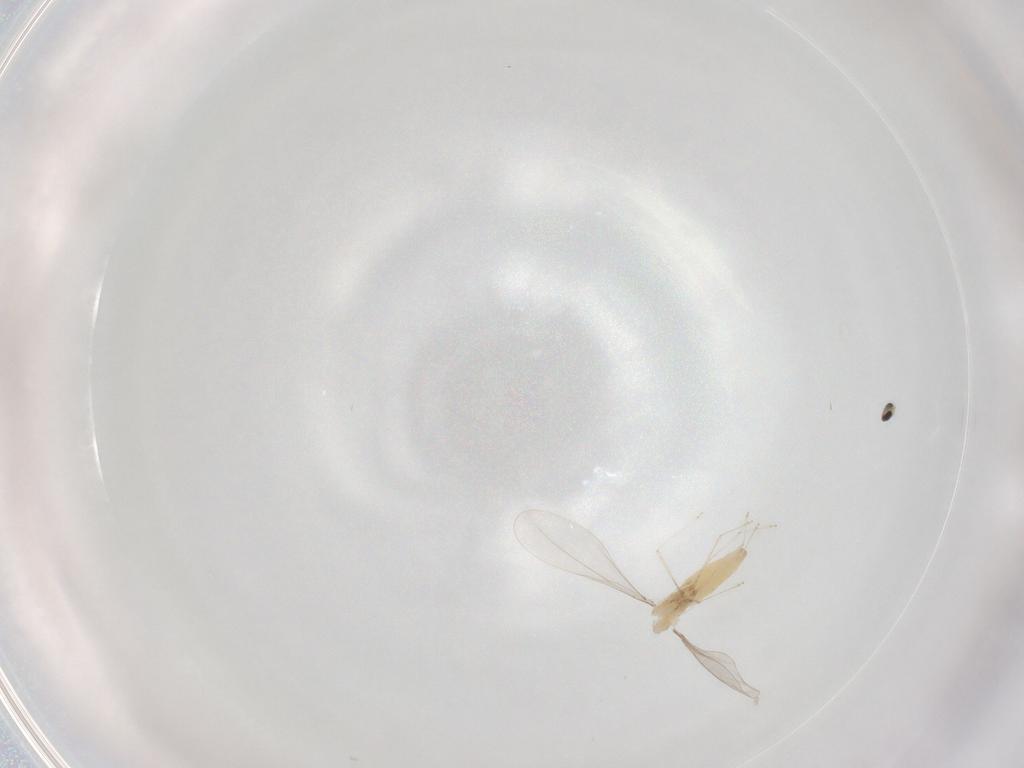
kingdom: Animalia
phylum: Arthropoda
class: Insecta
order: Diptera
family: Cecidomyiidae
